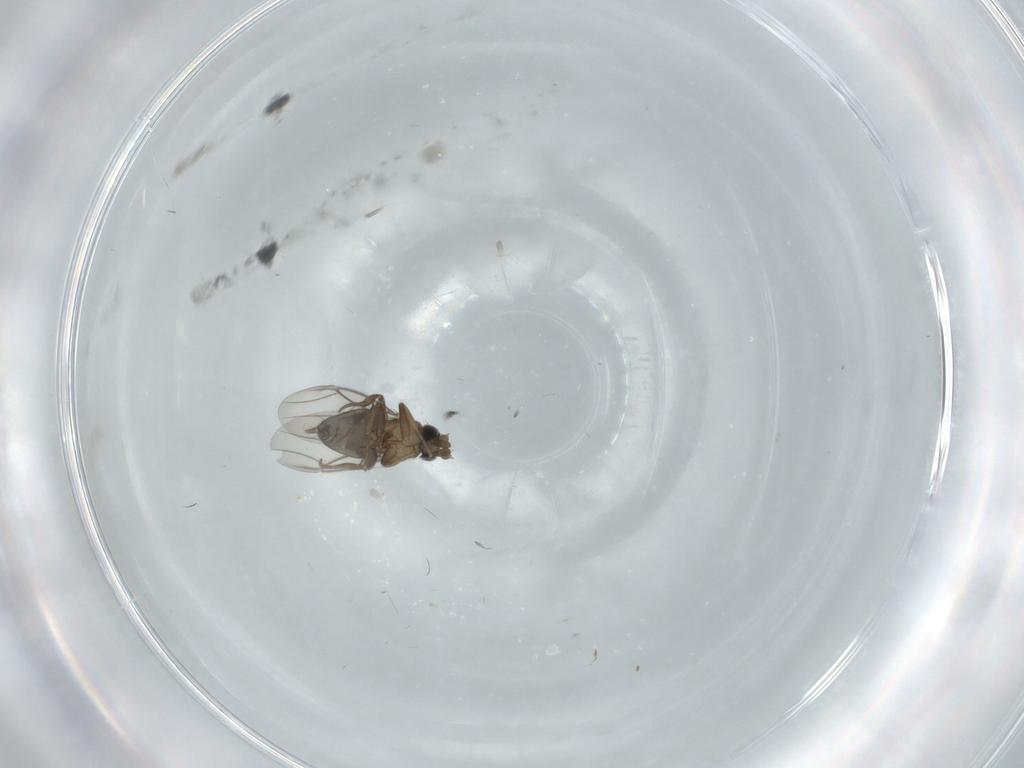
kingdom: Animalia
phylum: Arthropoda
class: Insecta
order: Diptera
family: Phoridae
